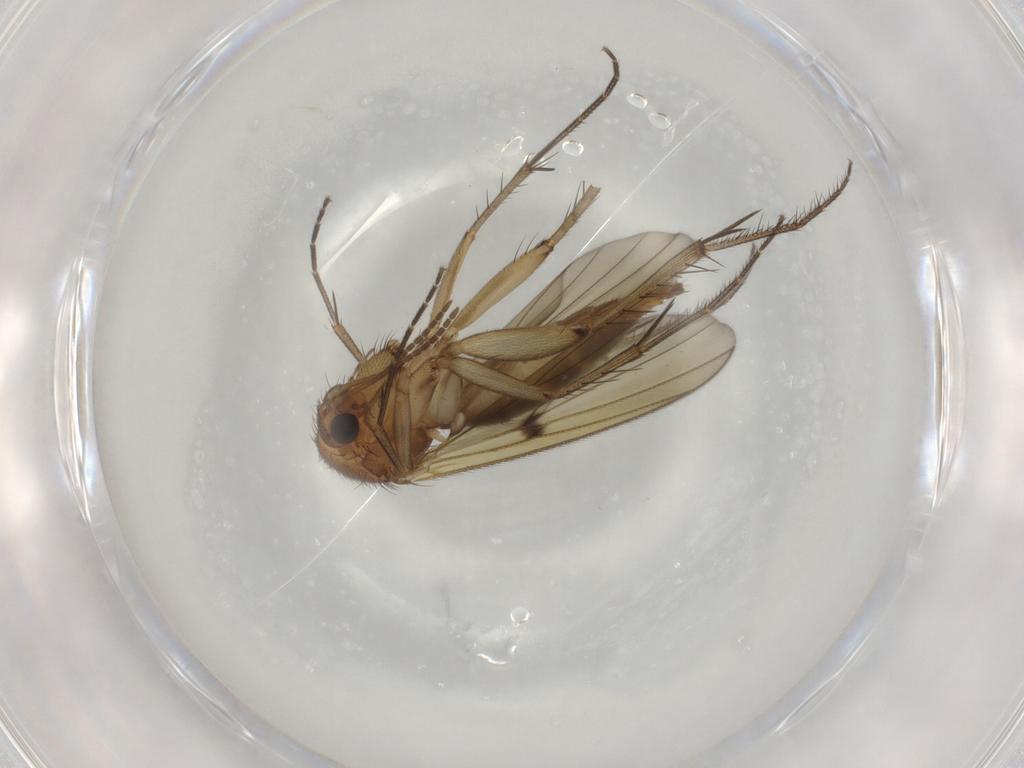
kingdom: Animalia
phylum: Arthropoda
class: Insecta
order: Diptera
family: Mycetophilidae
